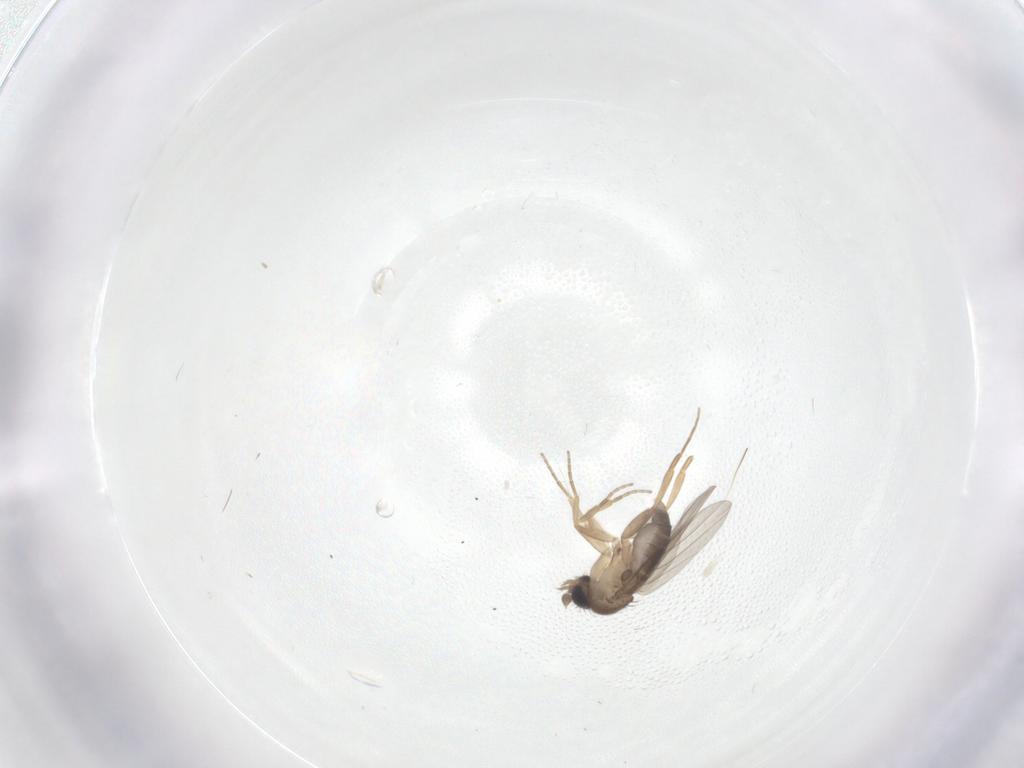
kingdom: Animalia
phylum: Arthropoda
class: Insecta
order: Diptera
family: Phoridae
